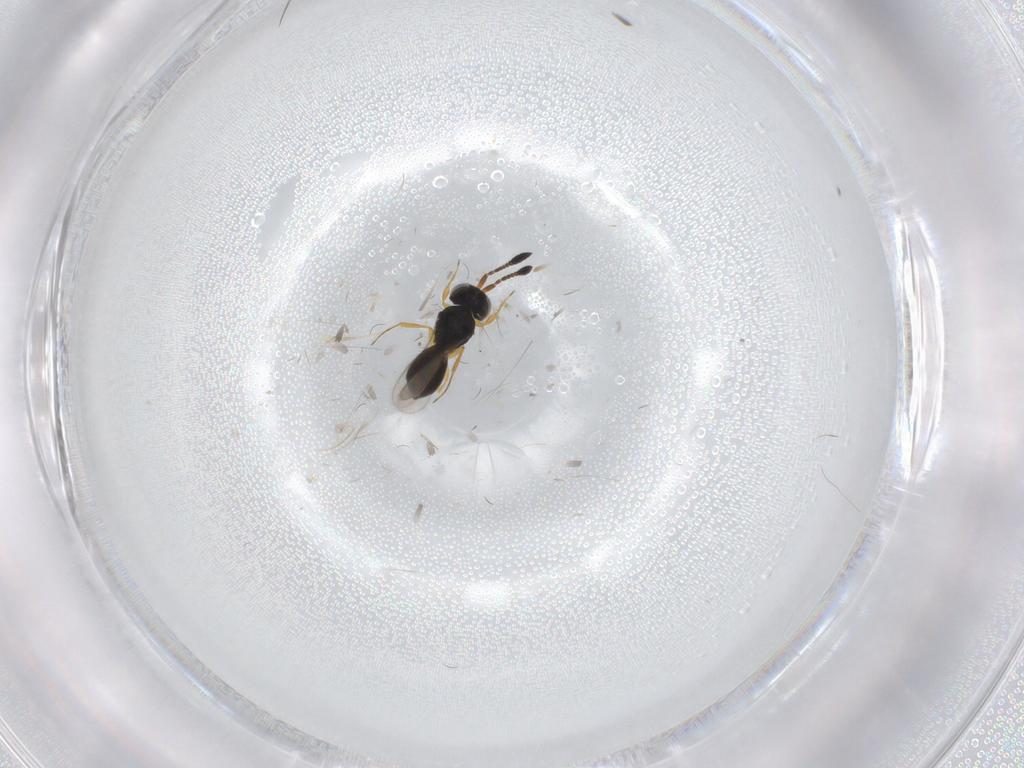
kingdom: Animalia
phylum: Arthropoda
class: Insecta
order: Hymenoptera
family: Scelionidae
